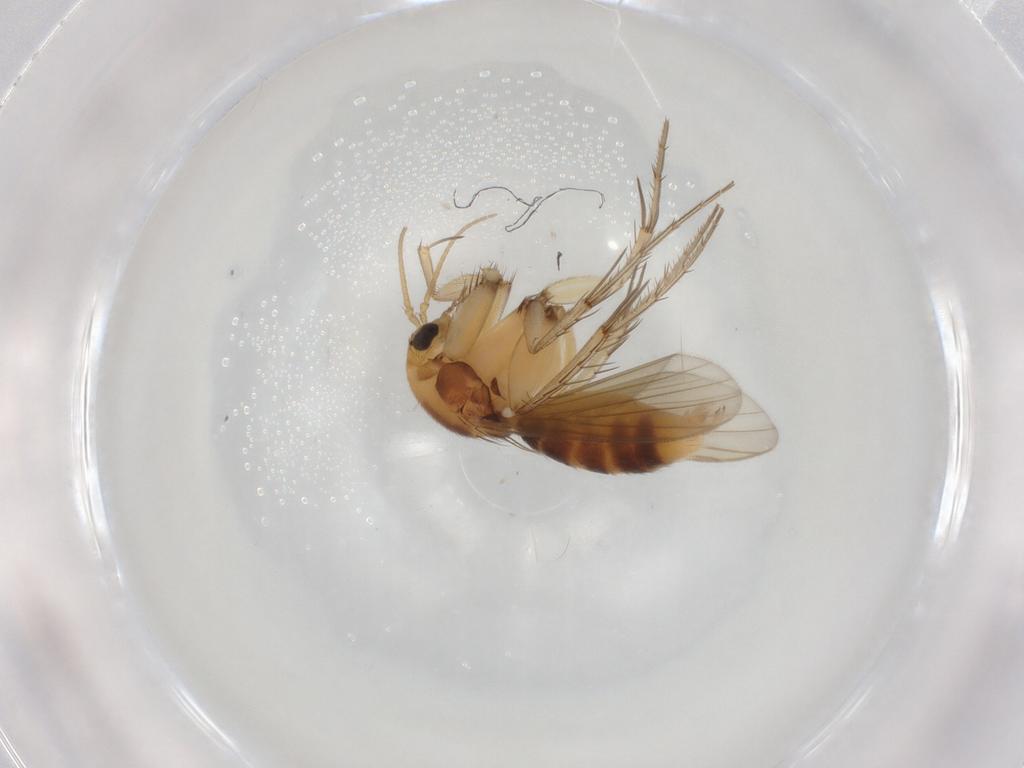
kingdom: Animalia
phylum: Arthropoda
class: Insecta
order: Diptera
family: Mycetophilidae
